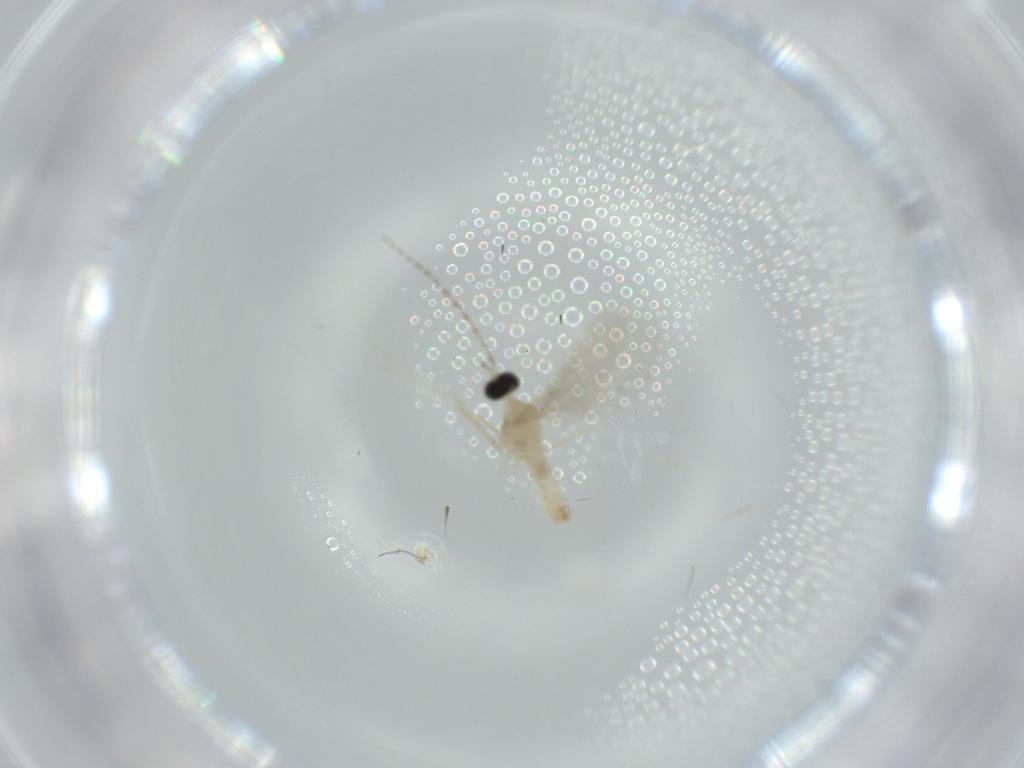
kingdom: Animalia
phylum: Arthropoda
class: Insecta
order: Diptera
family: Cecidomyiidae
